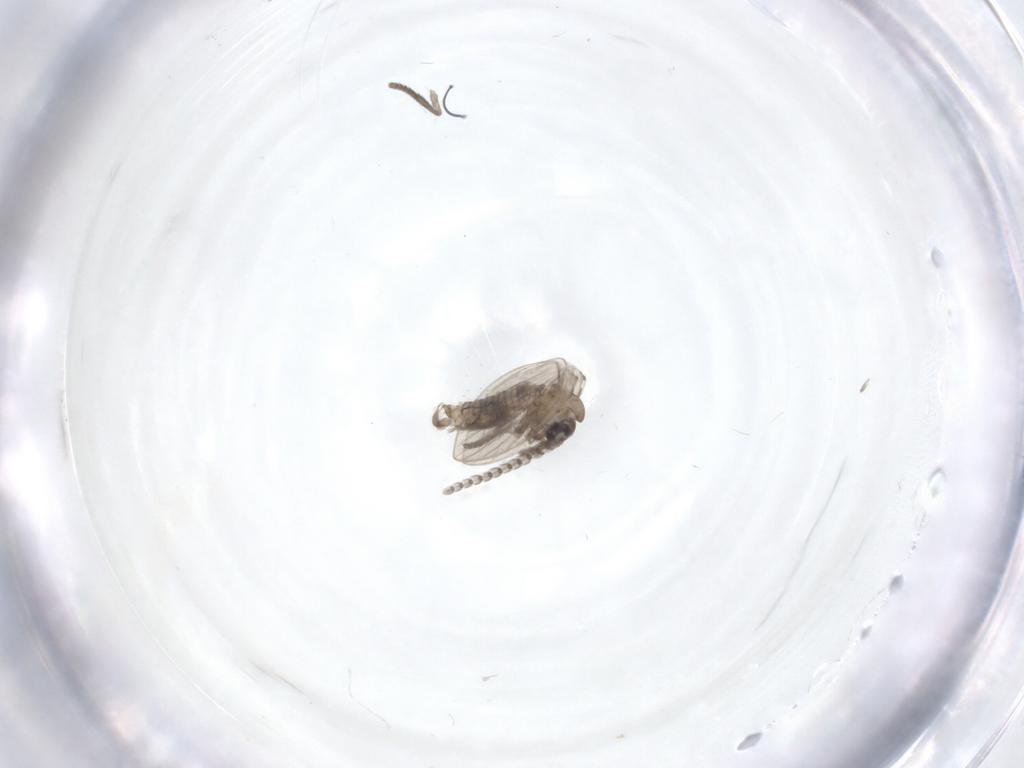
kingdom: Animalia
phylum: Arthropoda
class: Insecta
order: Diptera
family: Psychodidae
